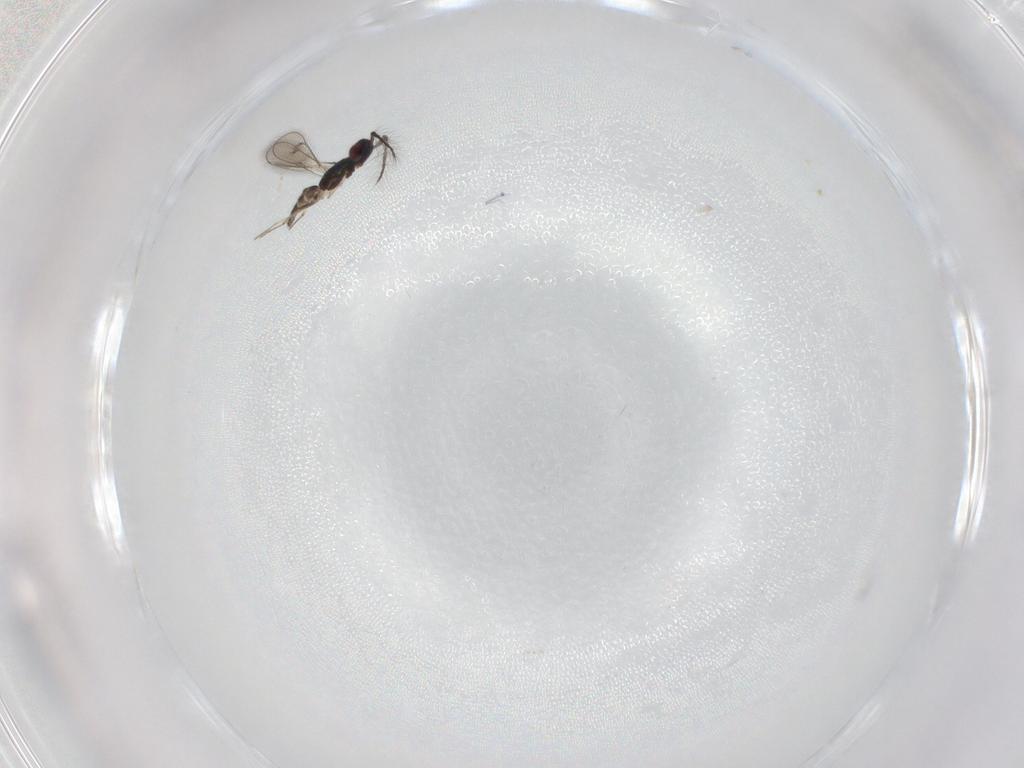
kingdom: Animalia
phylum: Arthropoda
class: Insecta
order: Hymenoptera
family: Eulophidae
